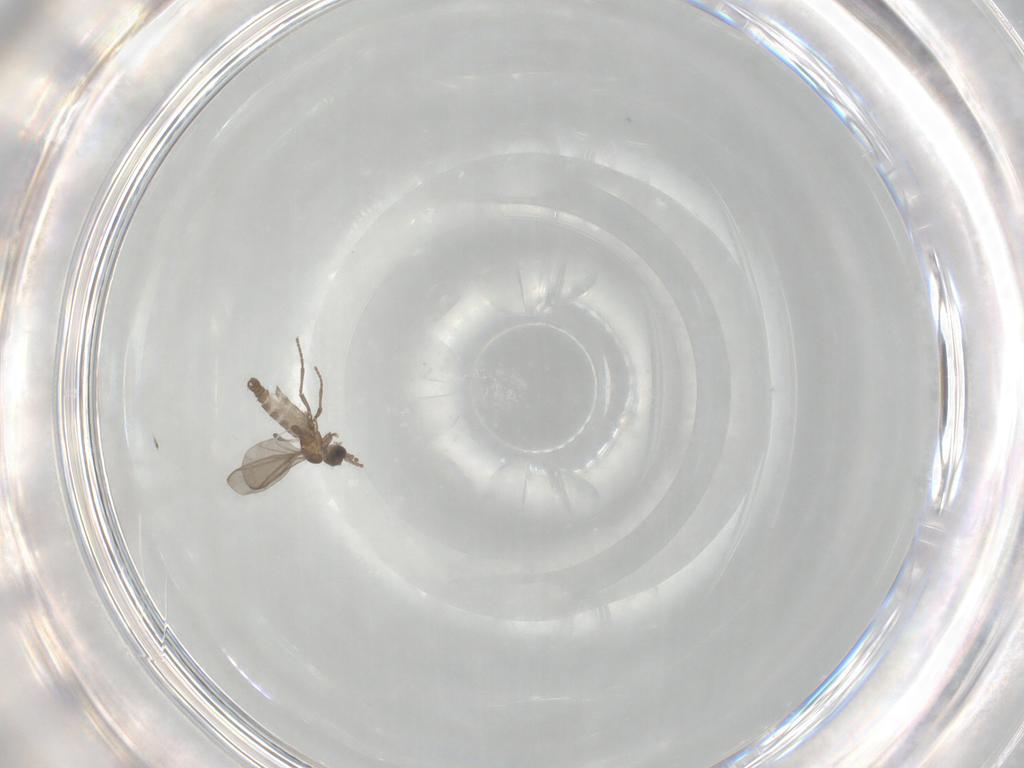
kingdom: Animalia
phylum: Arthropoda
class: Insecta
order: Diptera
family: Sciaridae
